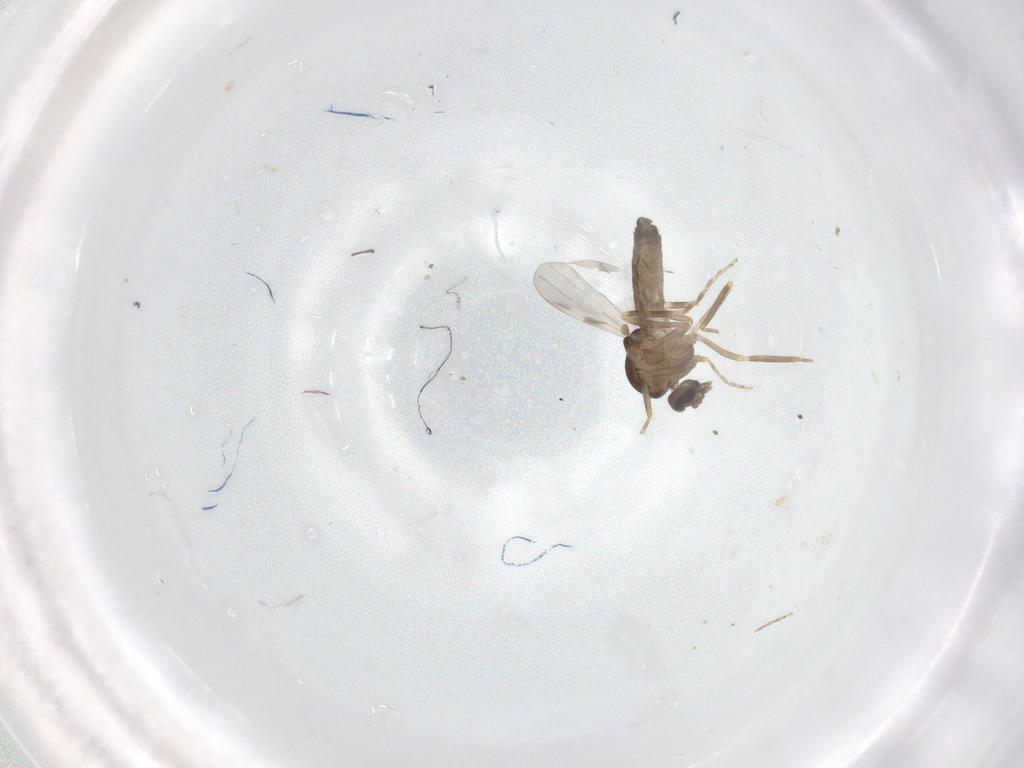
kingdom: Animalia
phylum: Arthropoda
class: Insecta
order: Diptera
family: Ceratopogonidae
